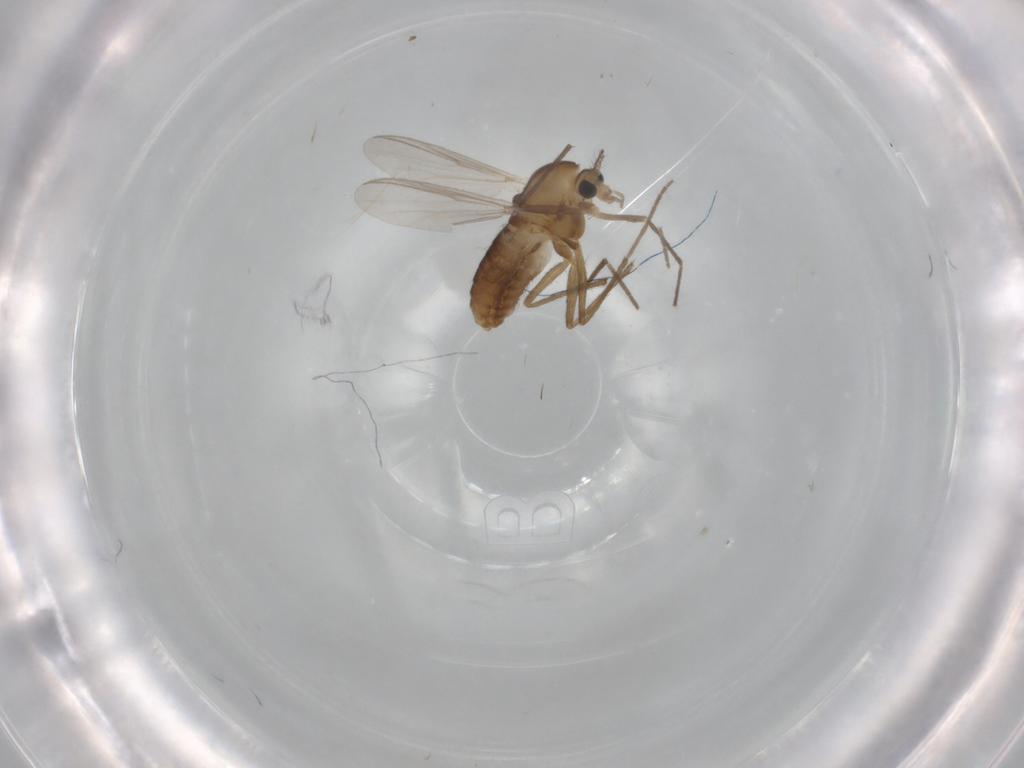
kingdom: Animalia
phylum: Arthropoda
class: Insecta
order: Diptera
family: Chironomidae
